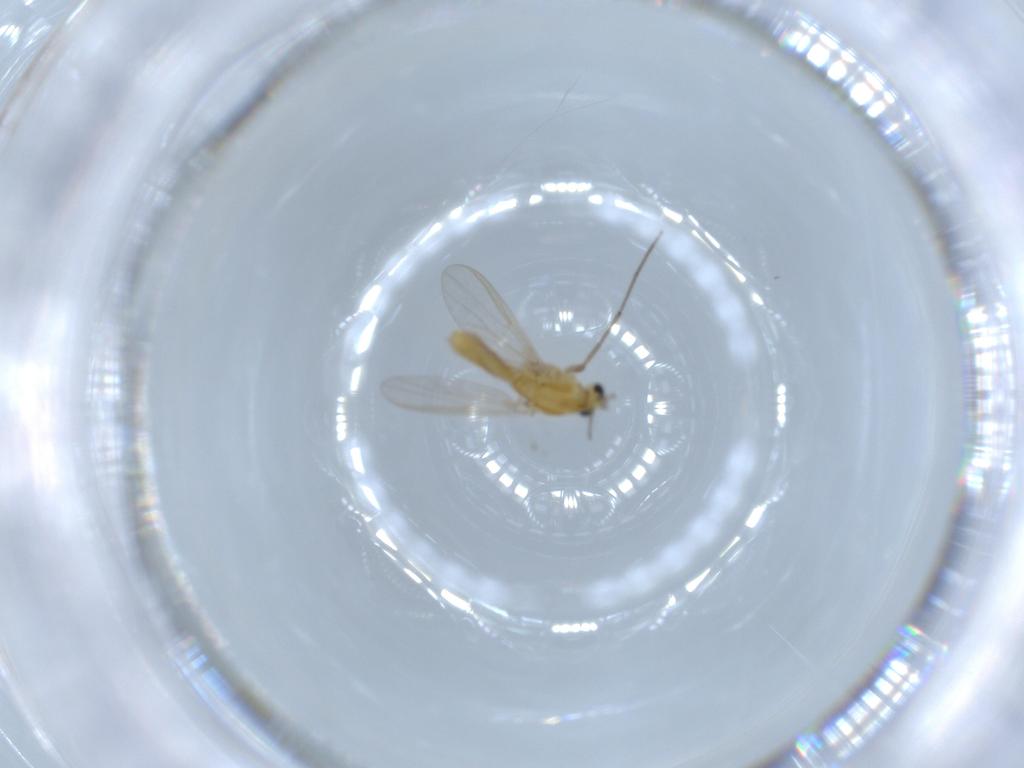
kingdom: Animalia
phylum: Arthropoda
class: Insecta
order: Diptera
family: Chironomidae
